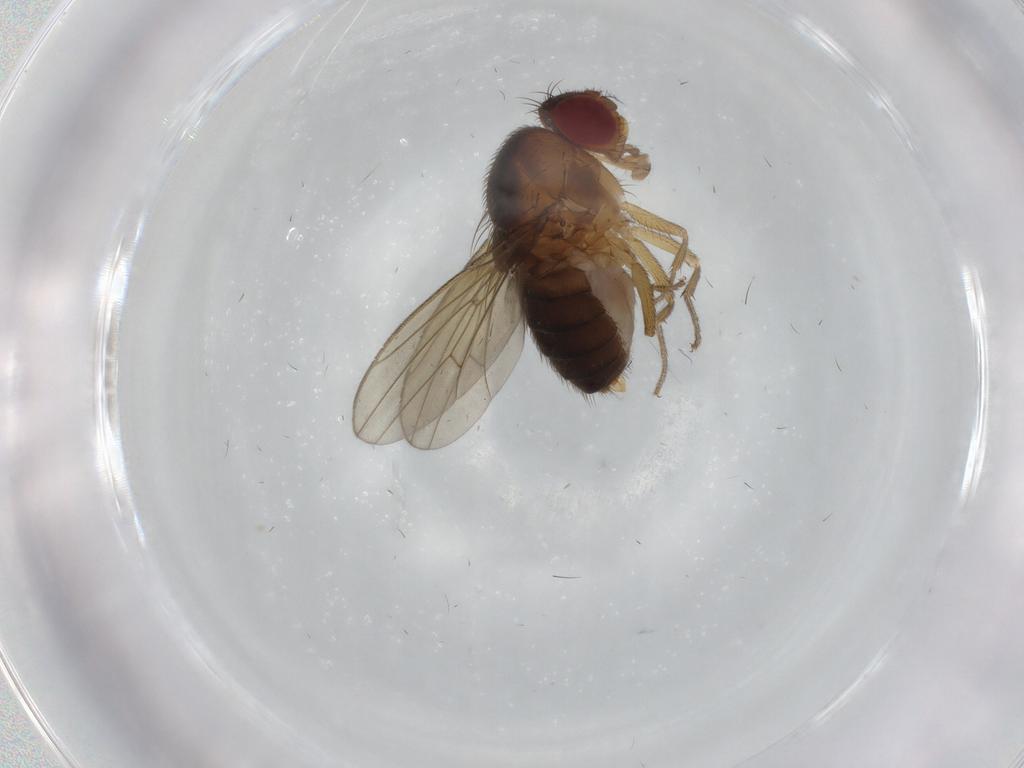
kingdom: Animalia
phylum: Arthropoda
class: Insecta
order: Diptera
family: Drosophilidae
